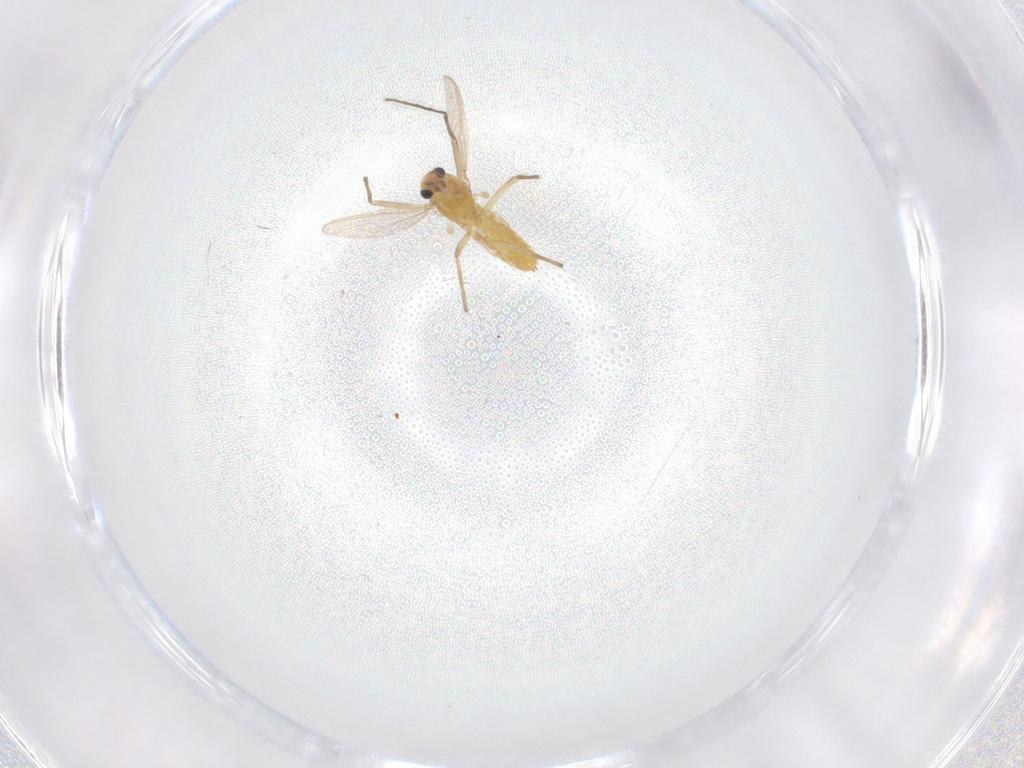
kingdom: Animalia
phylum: Arthropoda
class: Insecta
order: Diptera
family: Chironomidae
